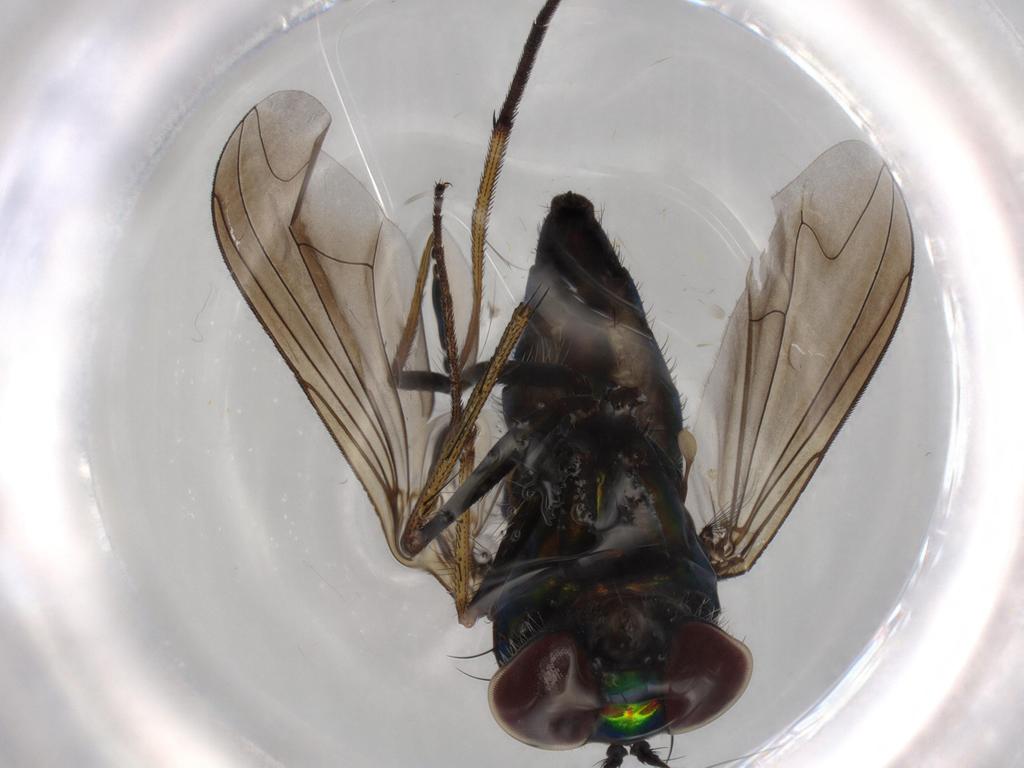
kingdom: Animalia
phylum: Arthropoda
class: Insecta
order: Diptera
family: Dolichopodidae
